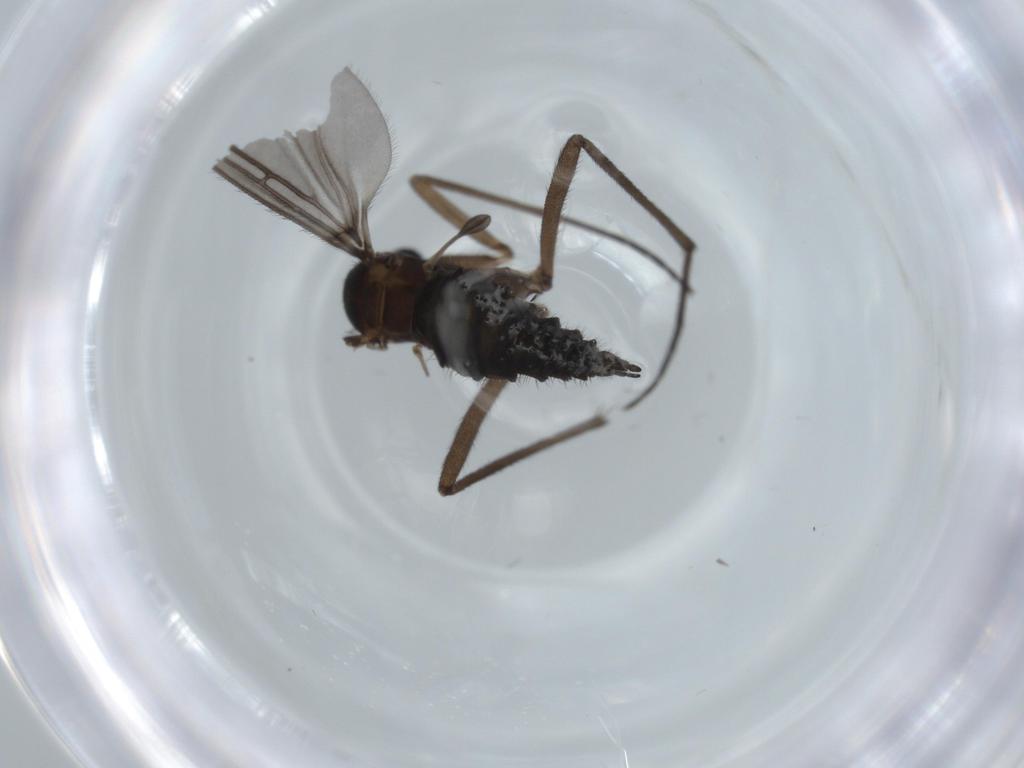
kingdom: Animalia
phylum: Arthropoda
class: Insecta
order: Diptera
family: Sciaridae
